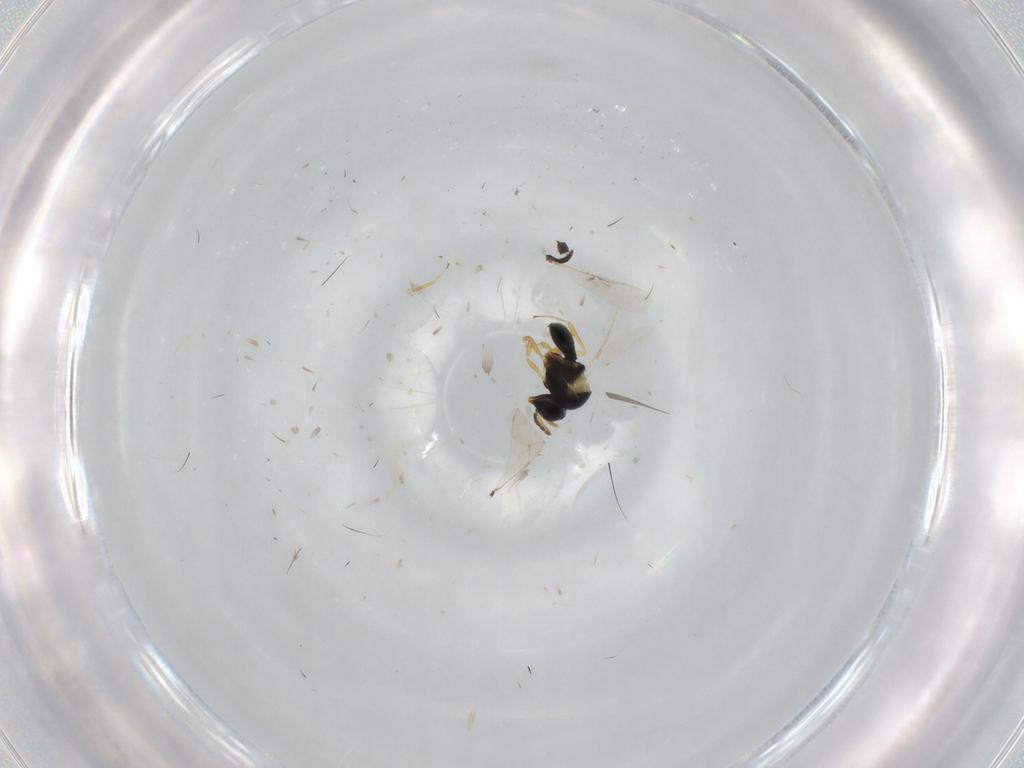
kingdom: Animalia
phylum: Arthropoda
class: Insecta
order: Hymenoptera
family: Scelionidae
